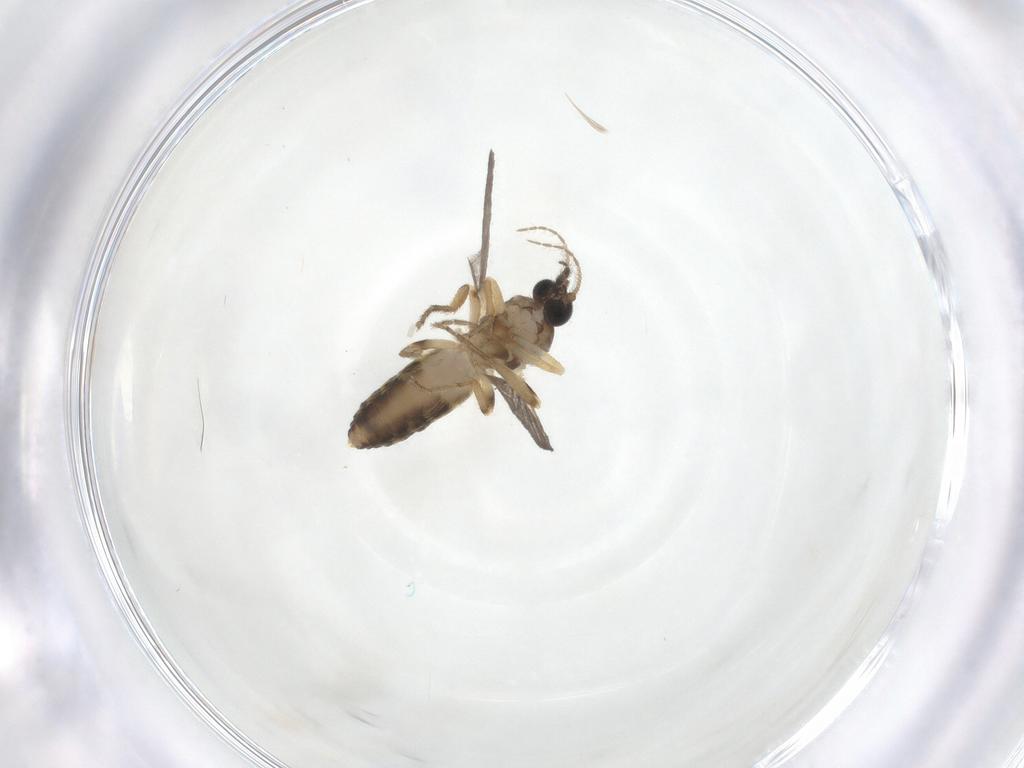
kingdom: Animalia
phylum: Arthropoda
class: Insecta
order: Diptera
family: Ceratopogonidae
